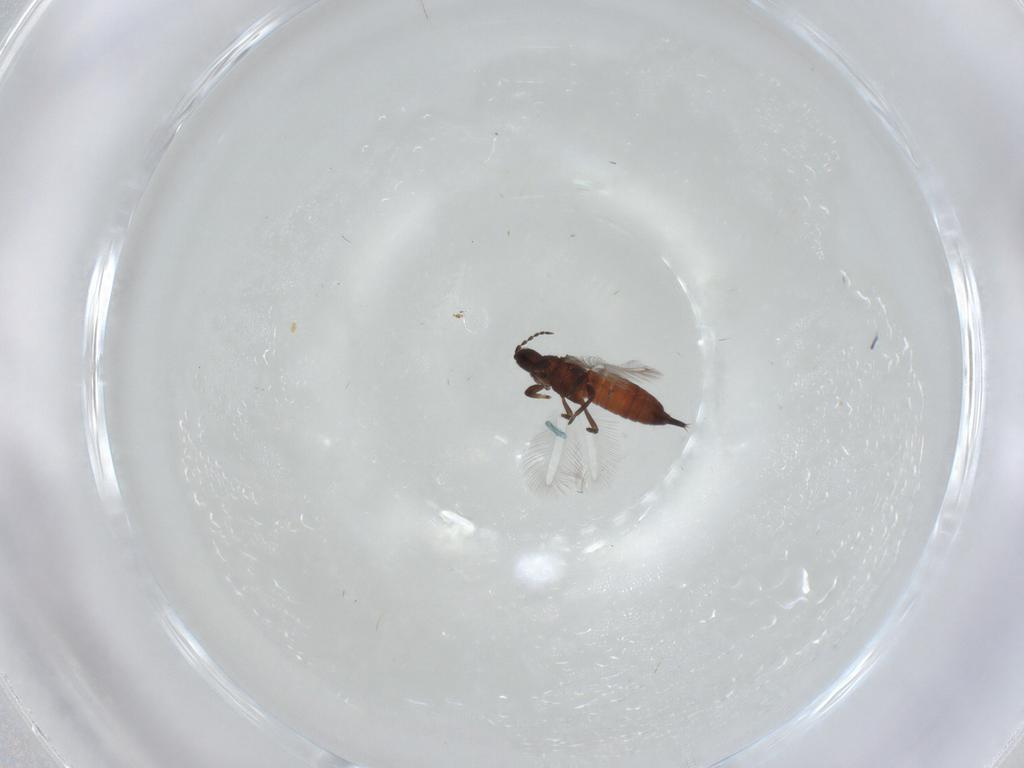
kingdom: Animalia
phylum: Arthropoda
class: Insecta
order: Thysanoptera
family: Phlaeothripidae
